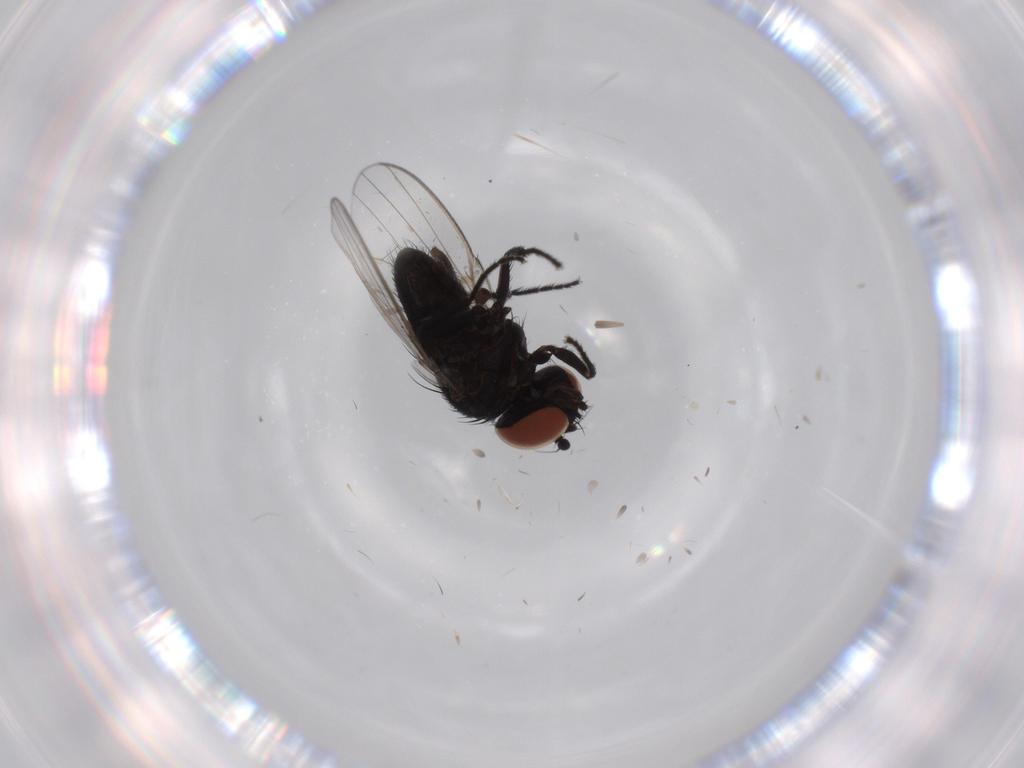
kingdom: Animalia
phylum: Arthropoda
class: Insecta
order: Diptera
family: Milichiidae
